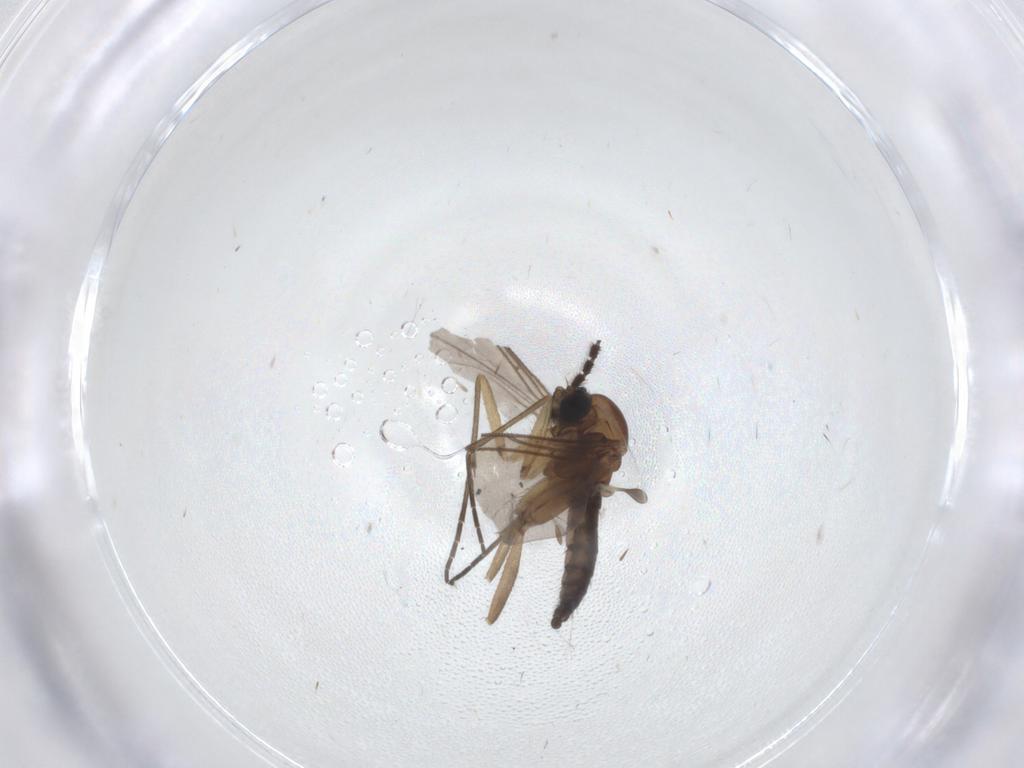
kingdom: Animalia
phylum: Arthropoda
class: Insecta
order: Diptera
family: Sciaridae
